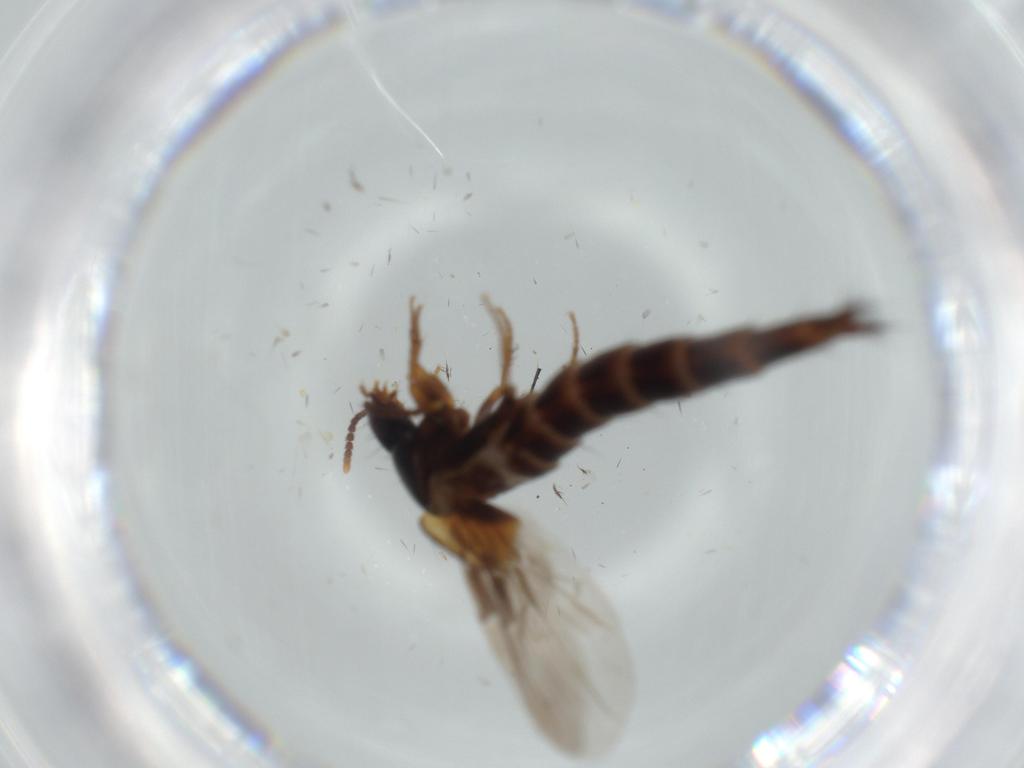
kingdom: Animalia
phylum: Arthropoda
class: Insecta
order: Coleoptera
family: Staphylinidae
